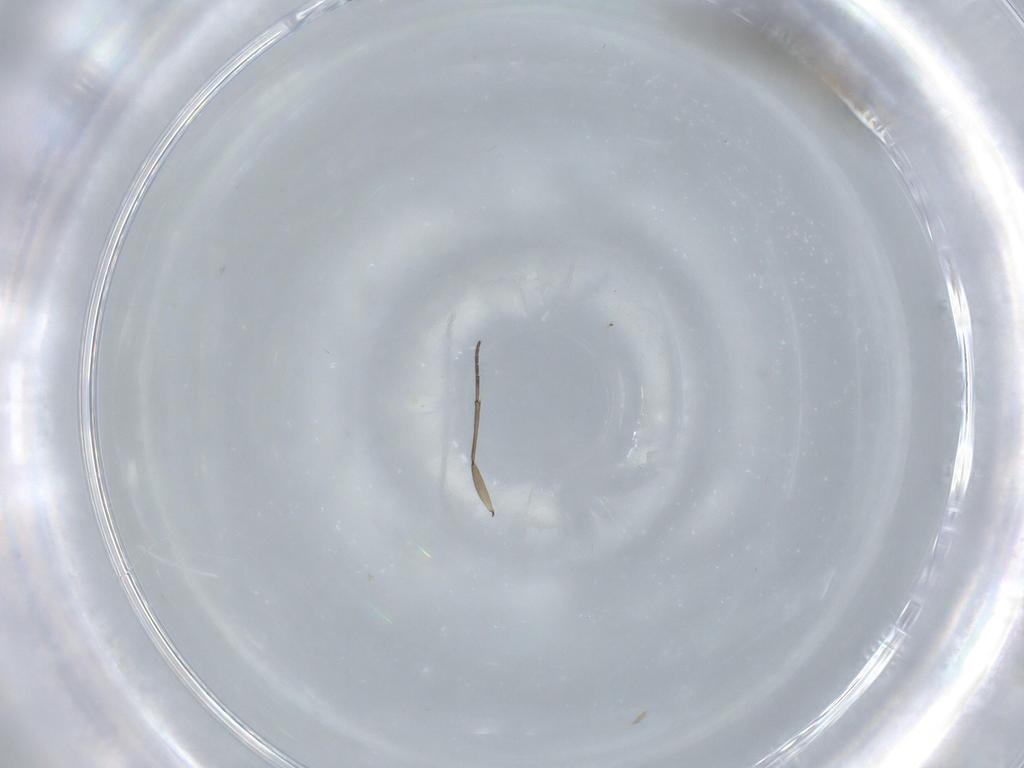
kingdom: Animalia
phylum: Arthropoda
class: Insecta
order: Diptera
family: Sciaridae
